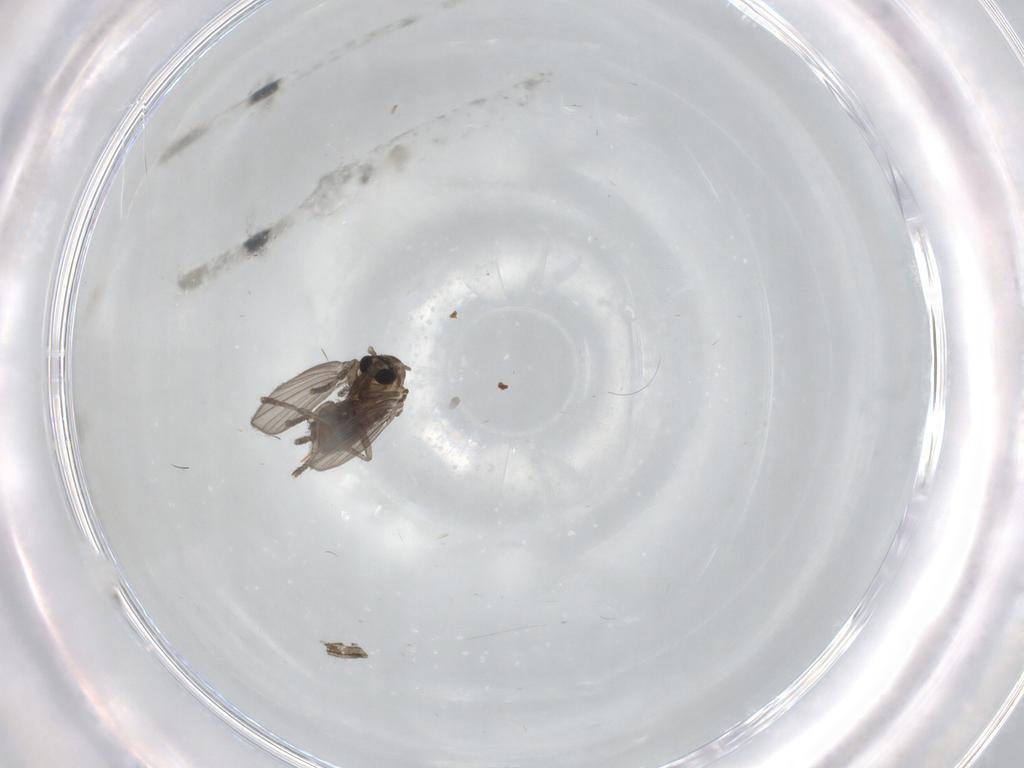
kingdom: Animalia
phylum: Arthropoda
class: Insecta
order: Diptera
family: Psychodidae
